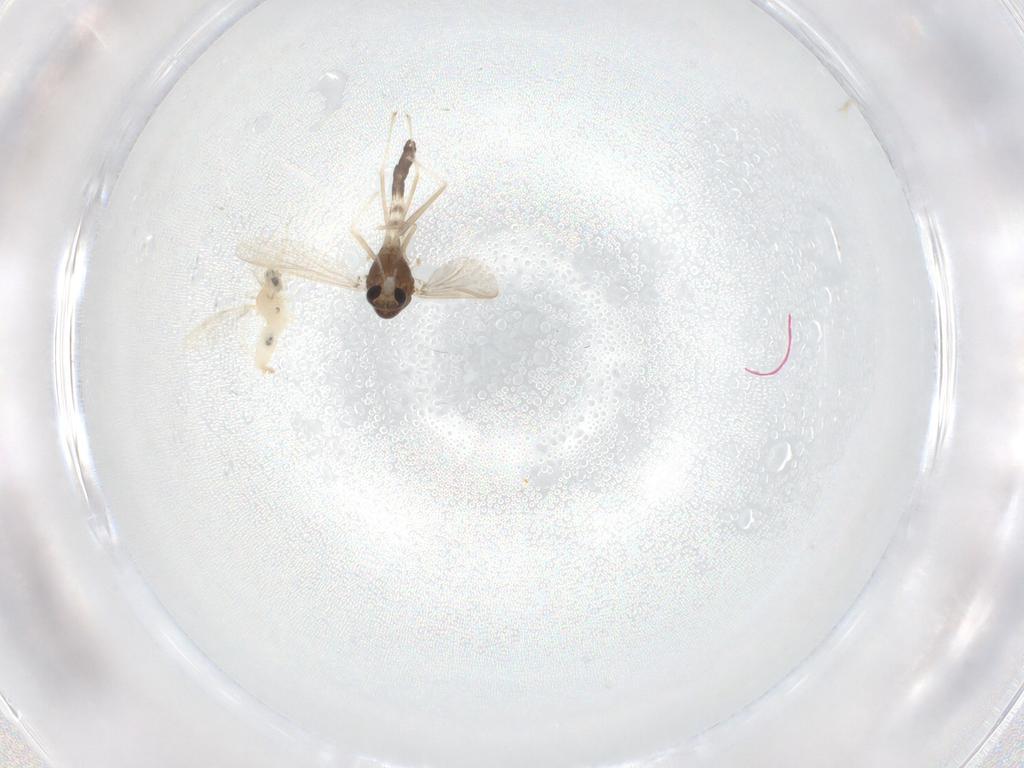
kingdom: Animalia
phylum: Arthropoda
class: Insecta
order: Diptera
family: Chironomidae
